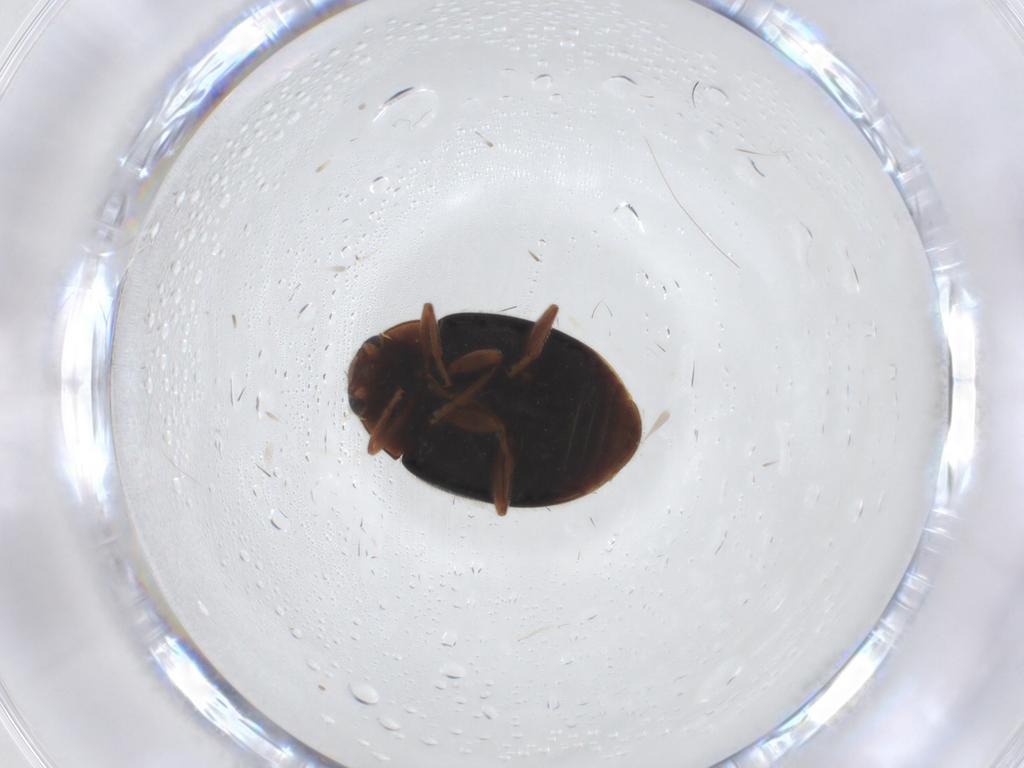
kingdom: Animalia
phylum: Arthropoda
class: Insecta
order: Coleoptera
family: Coccinellidae
